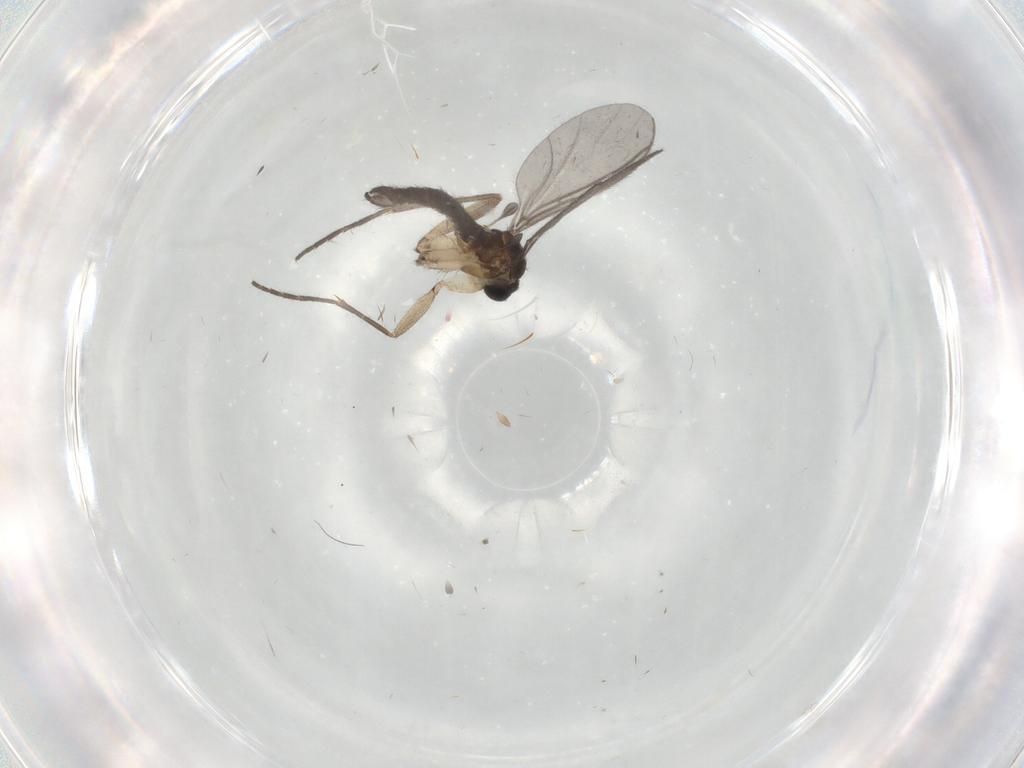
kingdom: Animalia
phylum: Arthropoda
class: Insecta
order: Diptera
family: Sciaridae
